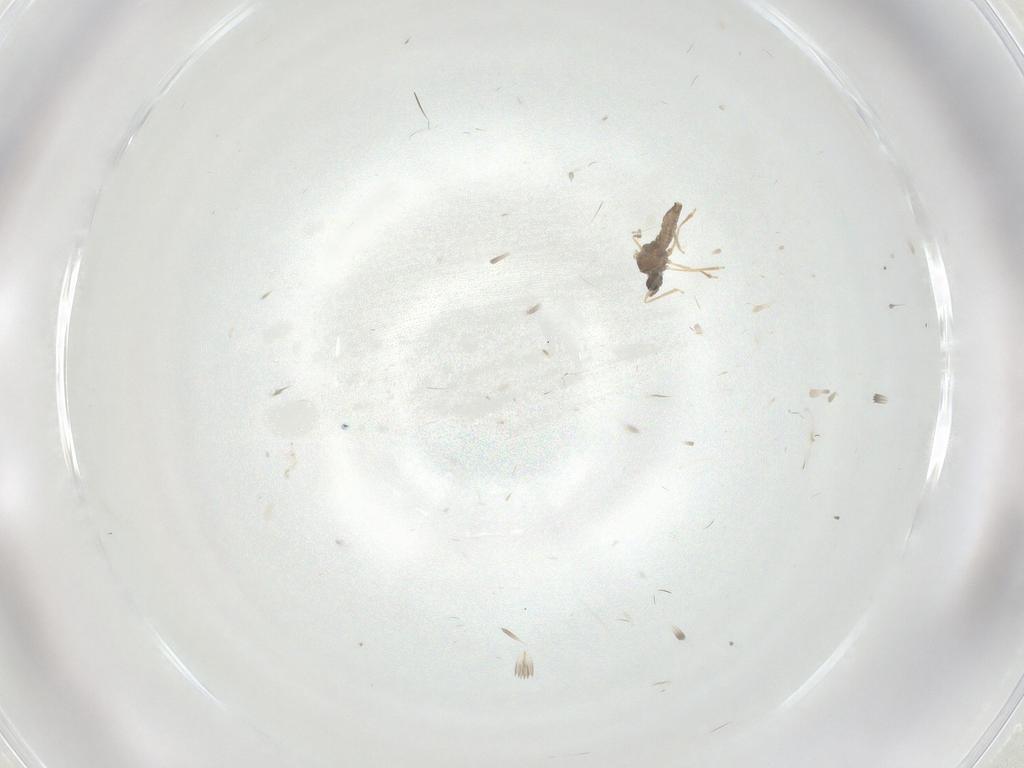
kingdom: Animalia
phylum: Arthropoda
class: Insecta
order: Diptera
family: Cecidomyiidae
